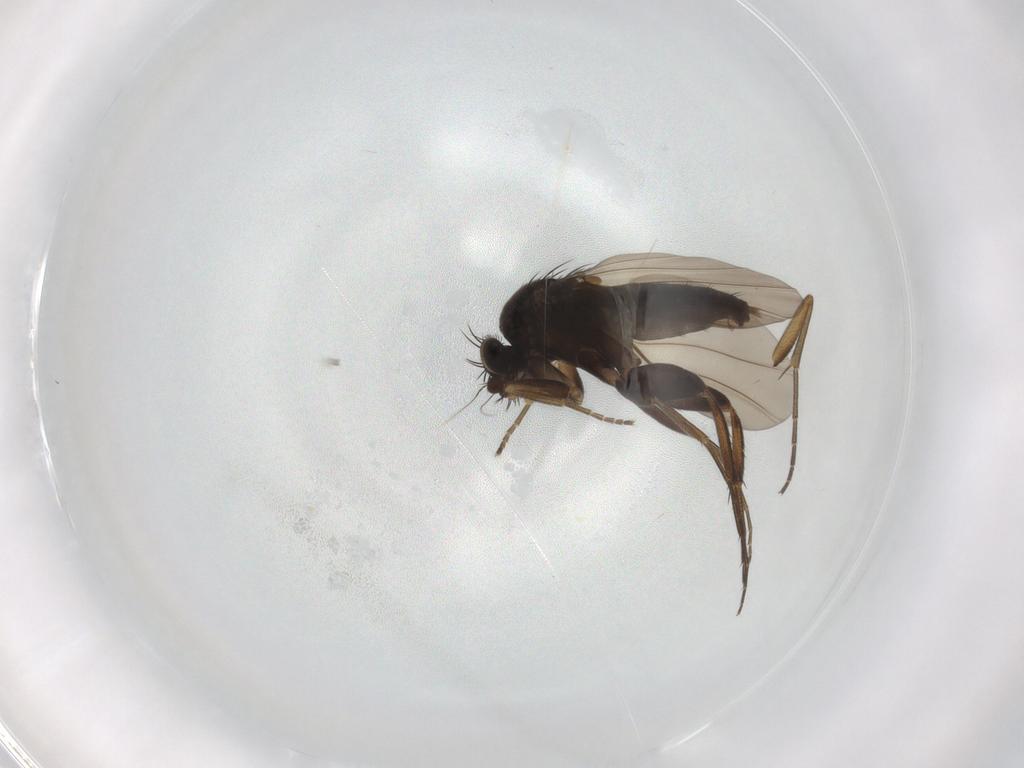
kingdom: Animalia
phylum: Arthropoda
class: Insecta
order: Diptera
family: Phoridae
